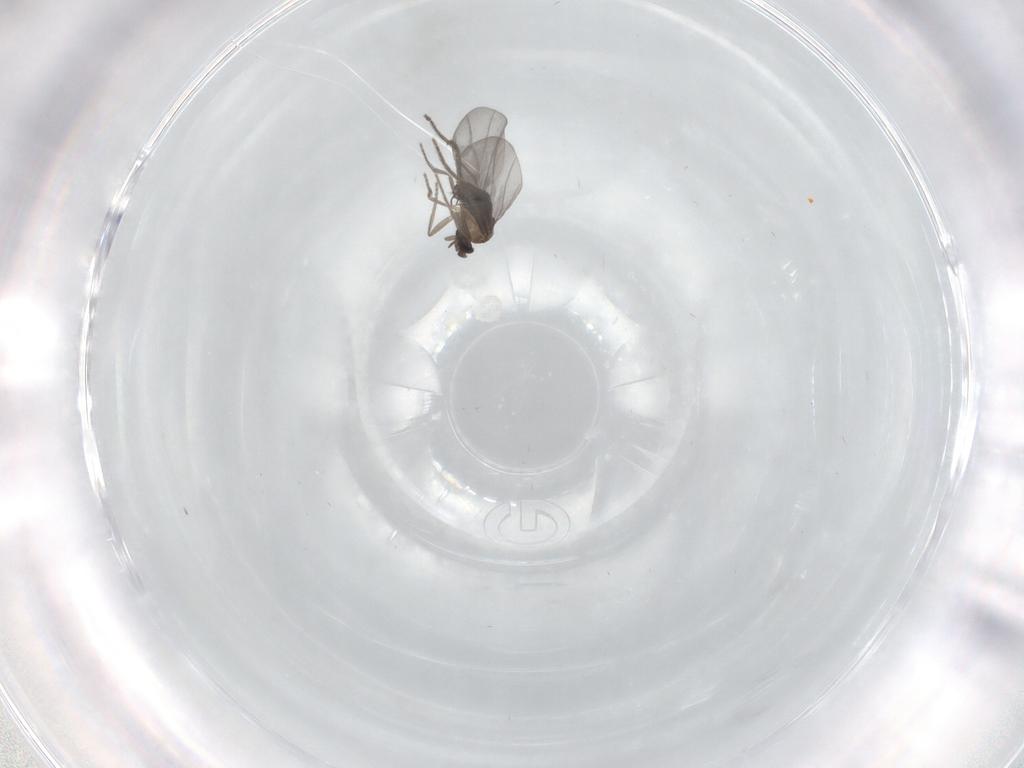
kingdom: Animalia
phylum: Arthropoda
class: Insecta
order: Diptera
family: Phoridae
